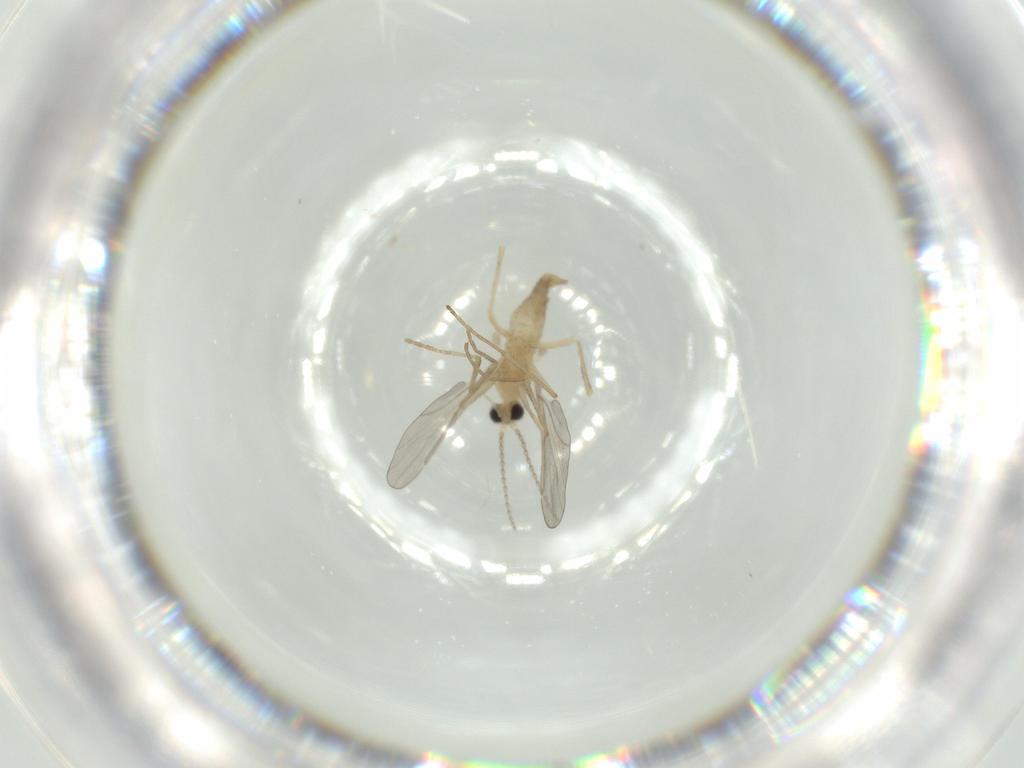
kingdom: Animalia
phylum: Arthropoda
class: Insecta
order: Diptera
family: Cecidomyiidae
